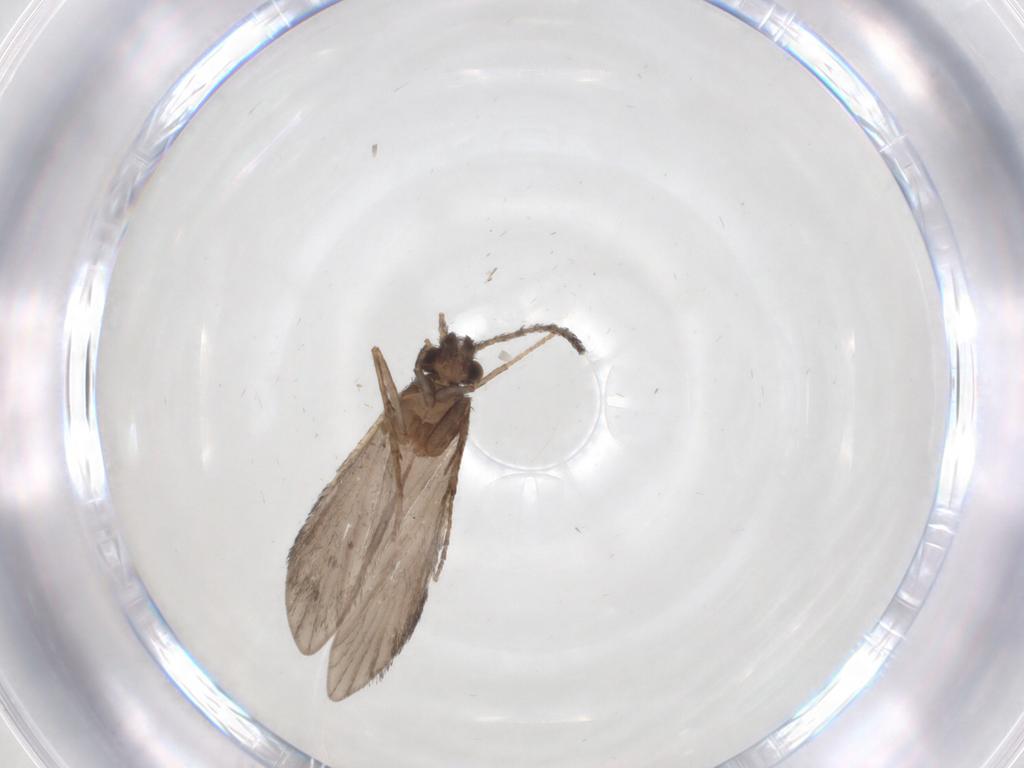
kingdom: Animalia
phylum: Arthropoda
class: Insecta
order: Trichoptera
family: Xiphocentronidae
